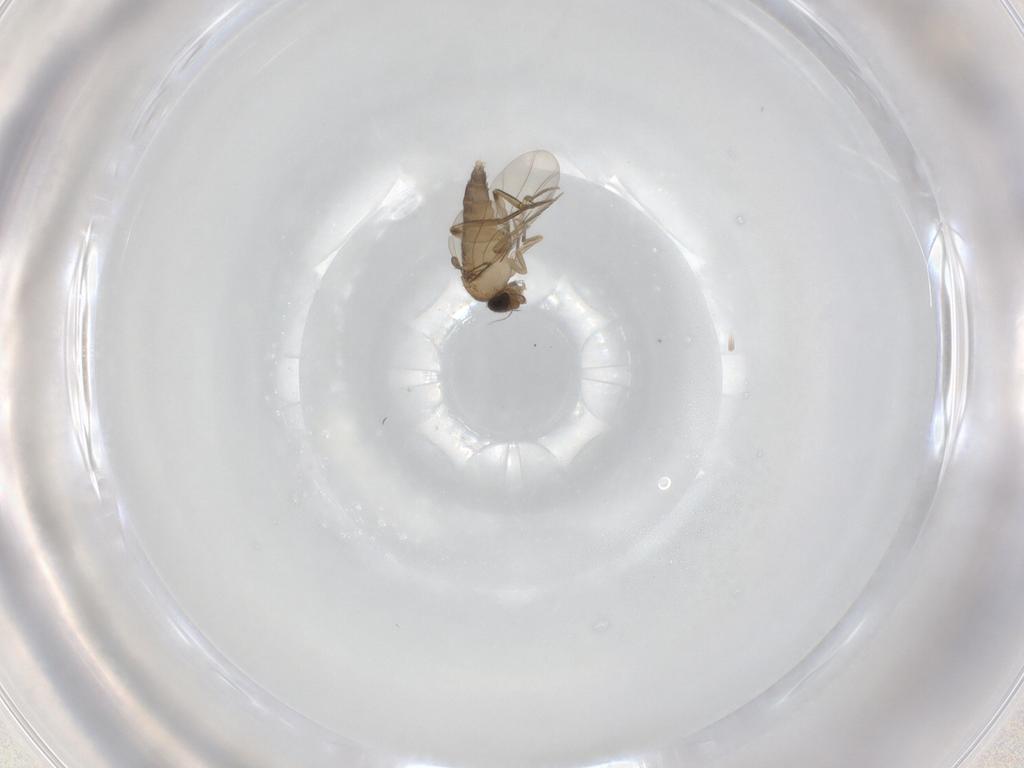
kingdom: Animalia
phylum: Arthropoda
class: Insecta
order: Diptera
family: Phoridae
